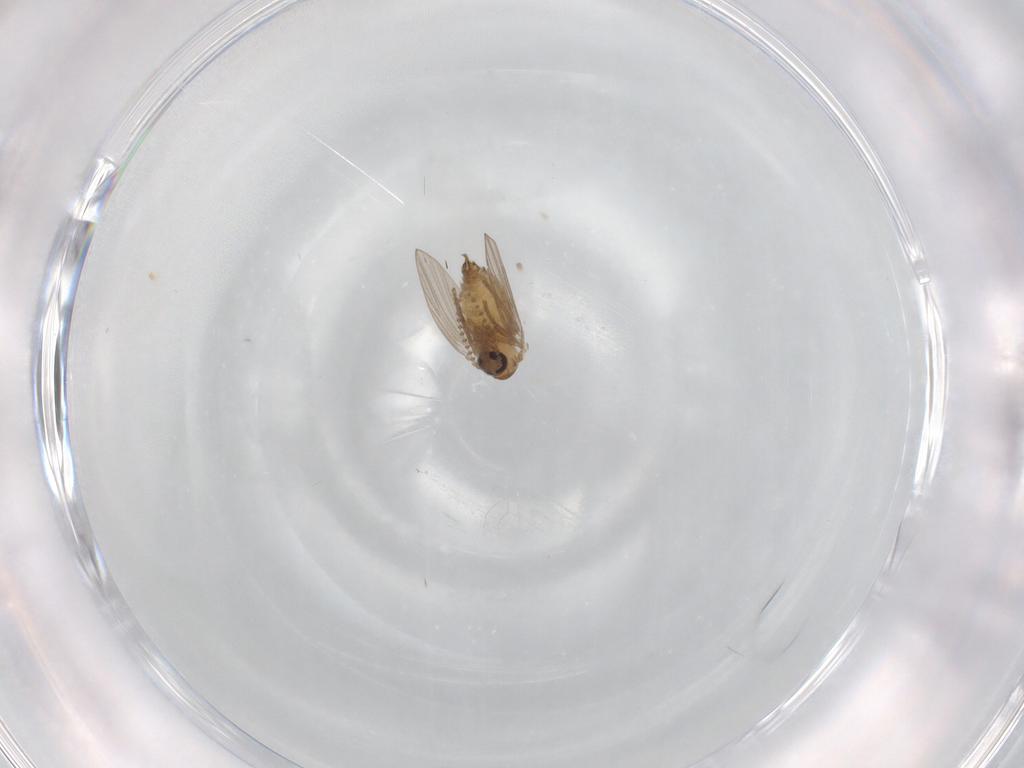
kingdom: Animalia
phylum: Arthropoda
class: Insecta
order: Diptera
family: Psychodidae
